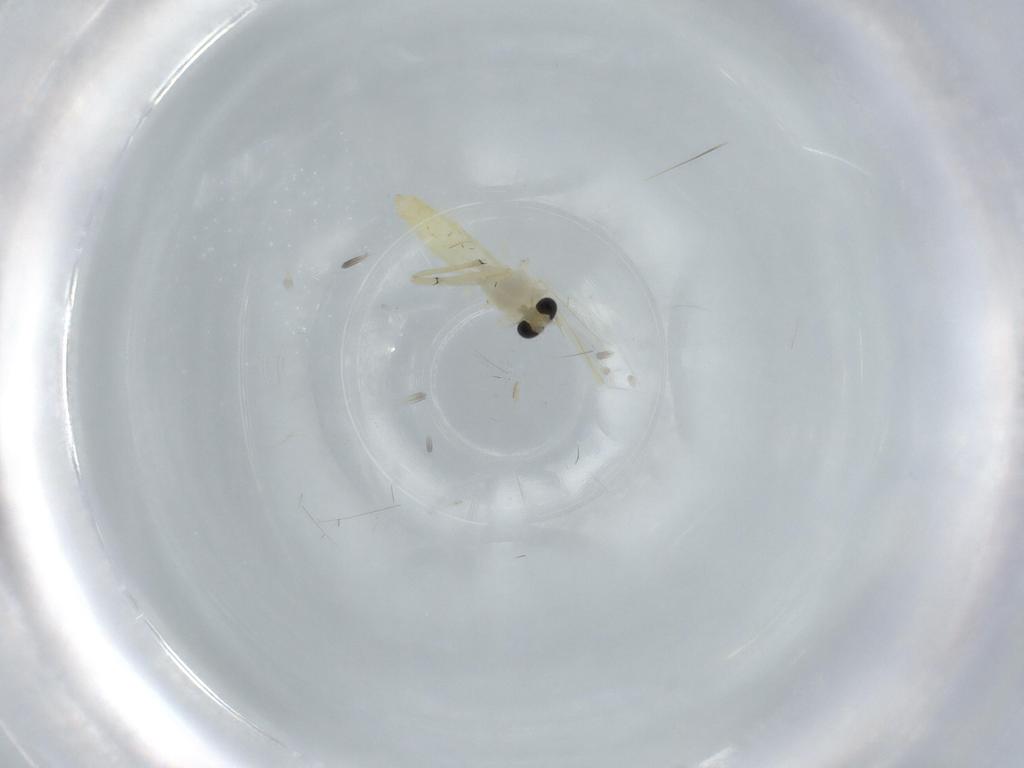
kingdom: Animalia
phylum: Arthropoda
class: Insecta
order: Diptera
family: Chironomidae
